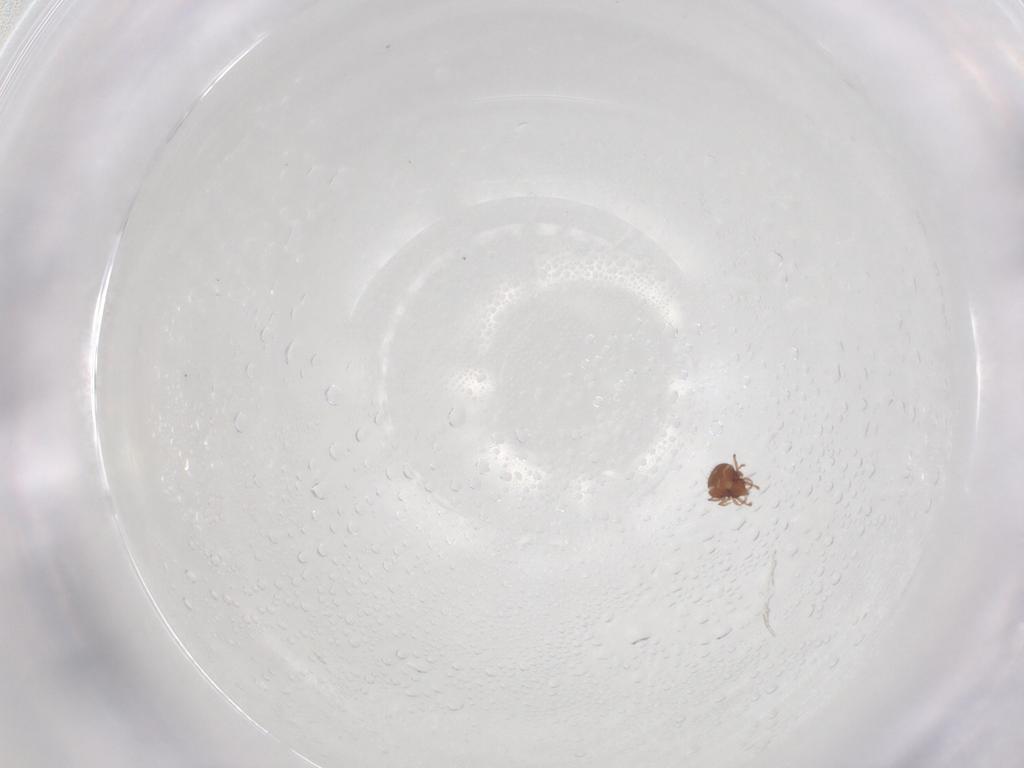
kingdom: Animalia
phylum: Arthropoda
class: Arachnida
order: Sarcoptiformes
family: Oribatulidae
